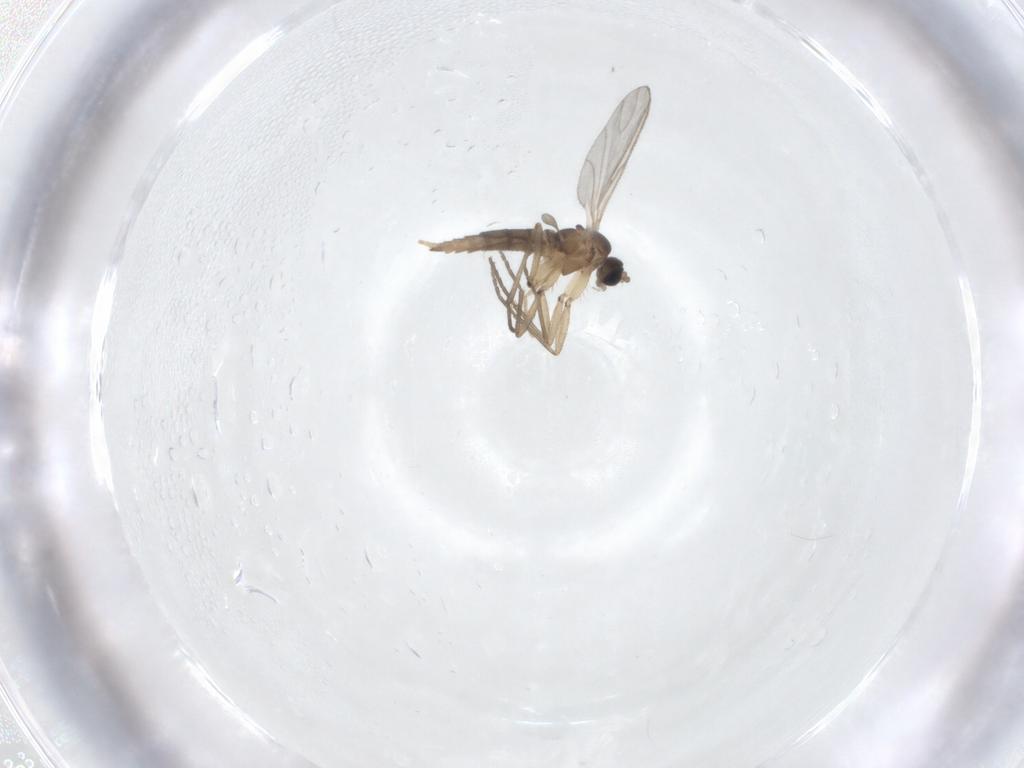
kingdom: Animalia
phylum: Arthropoda
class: Insecta
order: Diptera
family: Sciaridae
